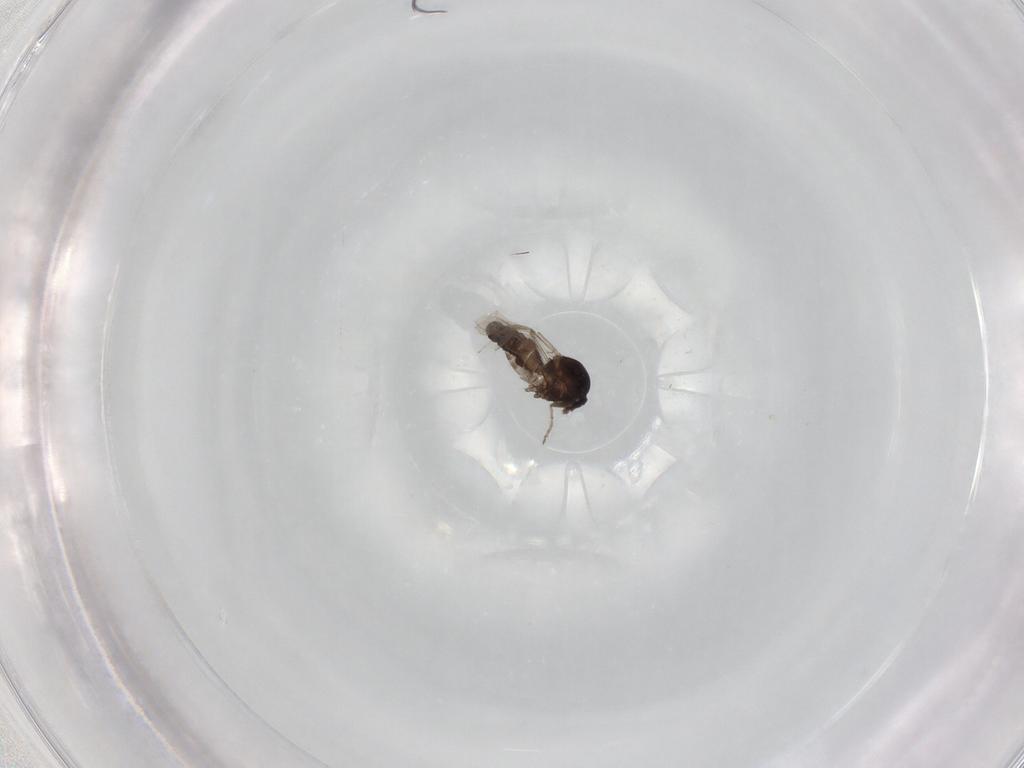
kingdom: Animalia
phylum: Arthropoda
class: Insecta
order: Diptera
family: Ceratopogonidae
